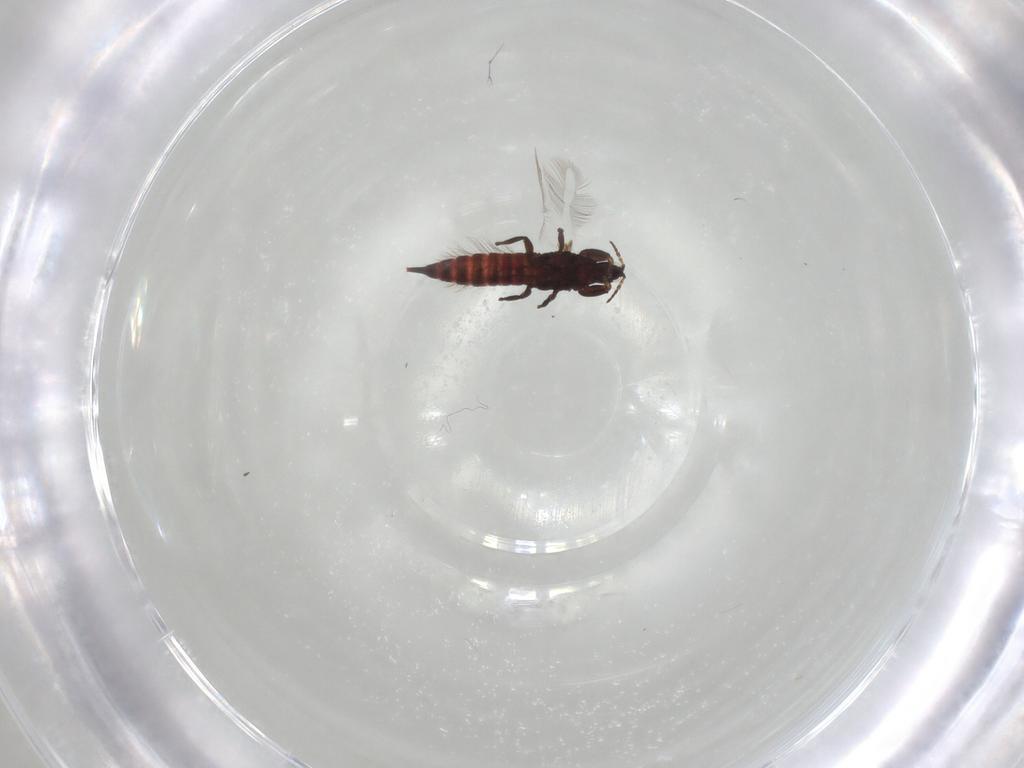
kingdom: Animalia
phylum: Arthropoda
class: Insecta
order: Thysanoptera
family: Phlaeothripidae
